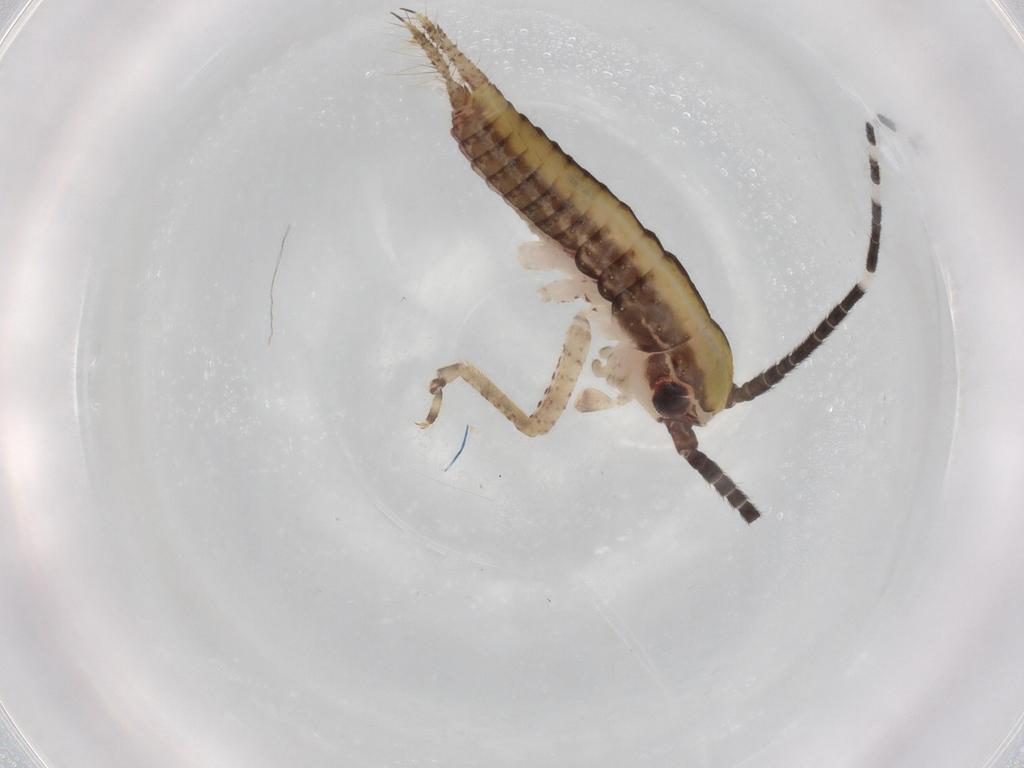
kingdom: Animalia
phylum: Arthropoda
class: Insecta
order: Orthoptera
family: Gryllidae
